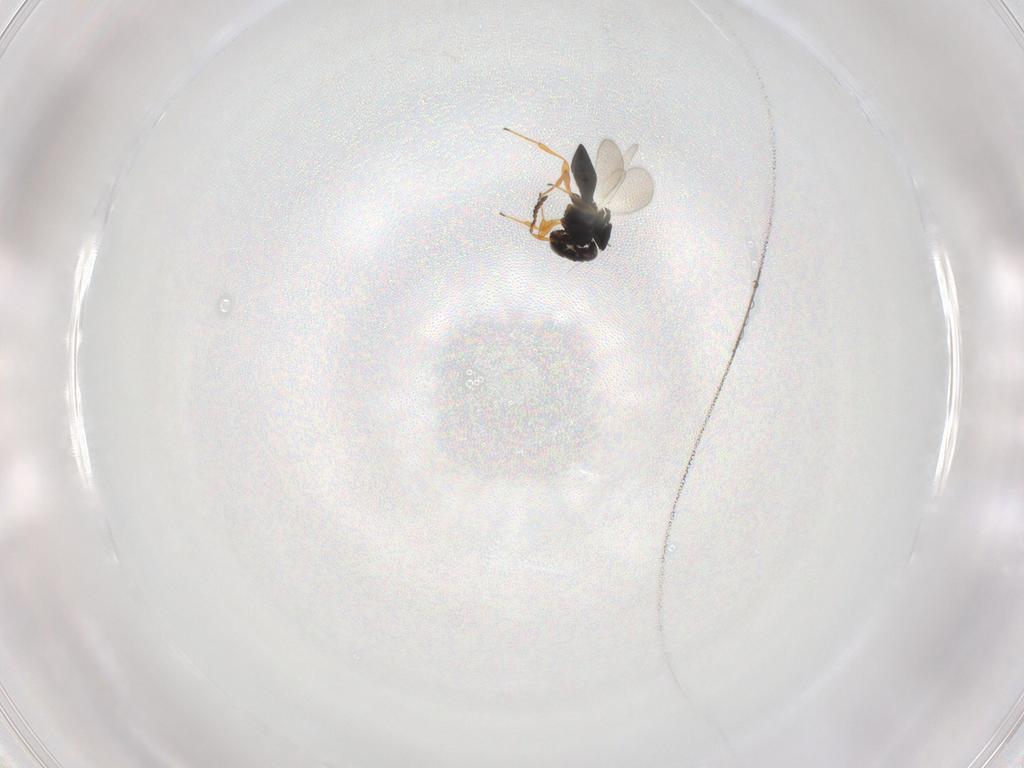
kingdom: Animalia
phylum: Arthropoda
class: Insecta
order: Hymenoptera
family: Platygastridae
